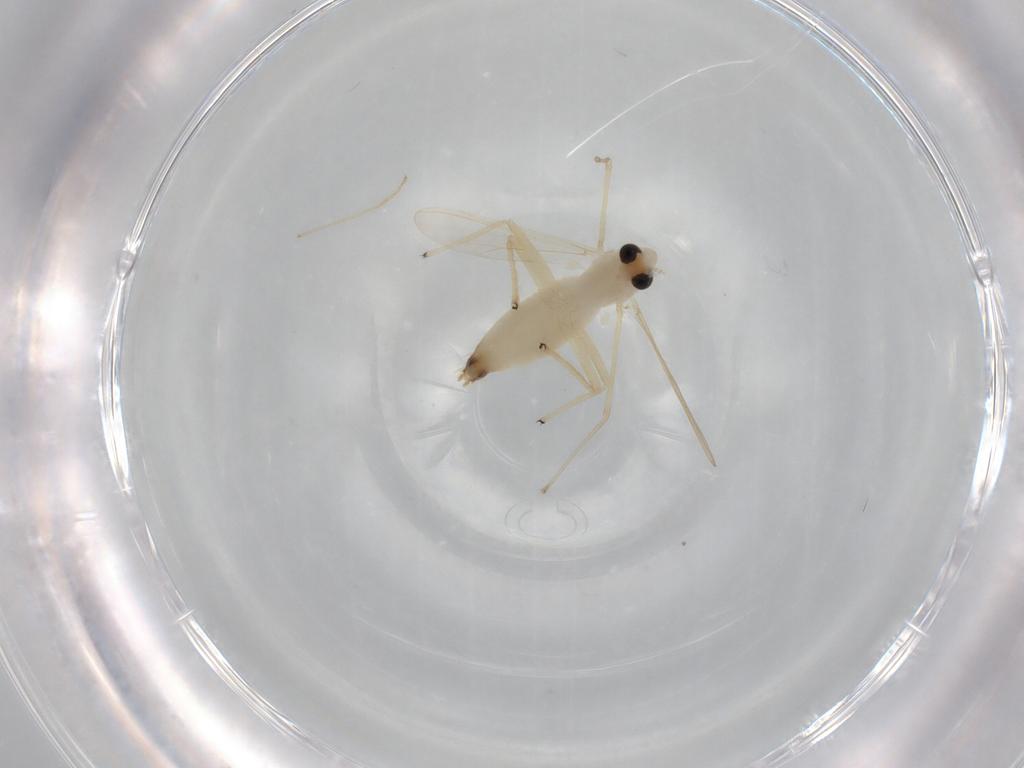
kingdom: Animalia
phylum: Arthropoda
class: Insecta
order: Diptera
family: Chironomidae
